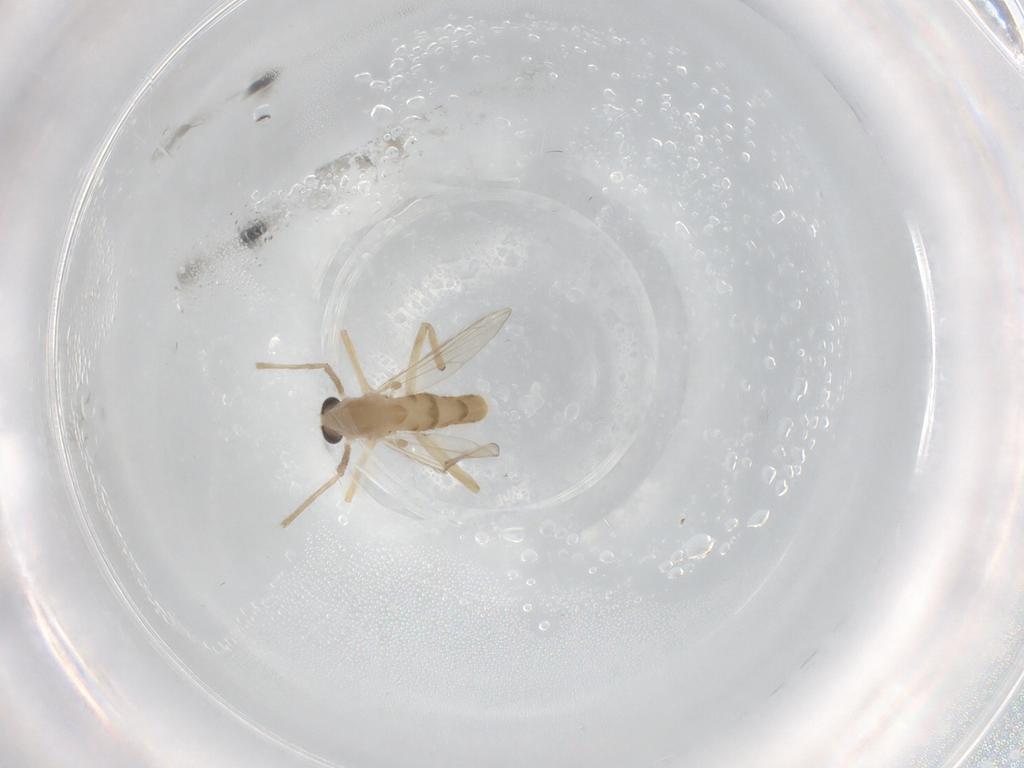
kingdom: Animalia
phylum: Arthropoda
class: Insecta
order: Diptera
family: Chironomidae
